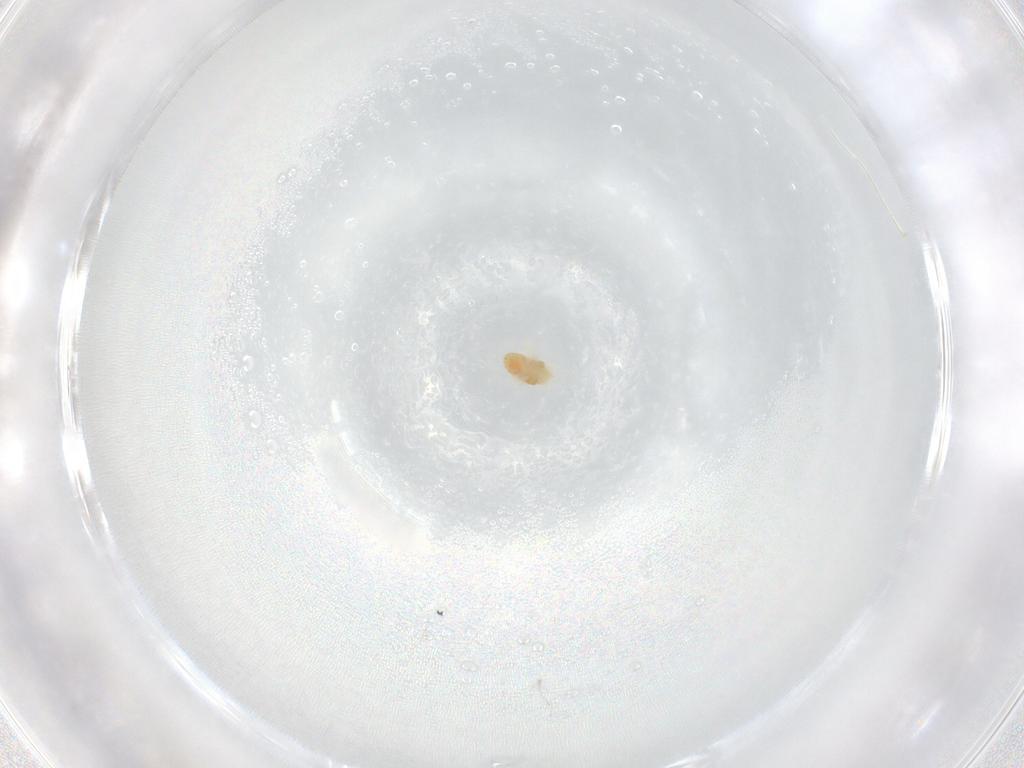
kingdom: Animalia
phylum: Arthropoda
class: Arachnida
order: Trombidiformes
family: Eupodidae
